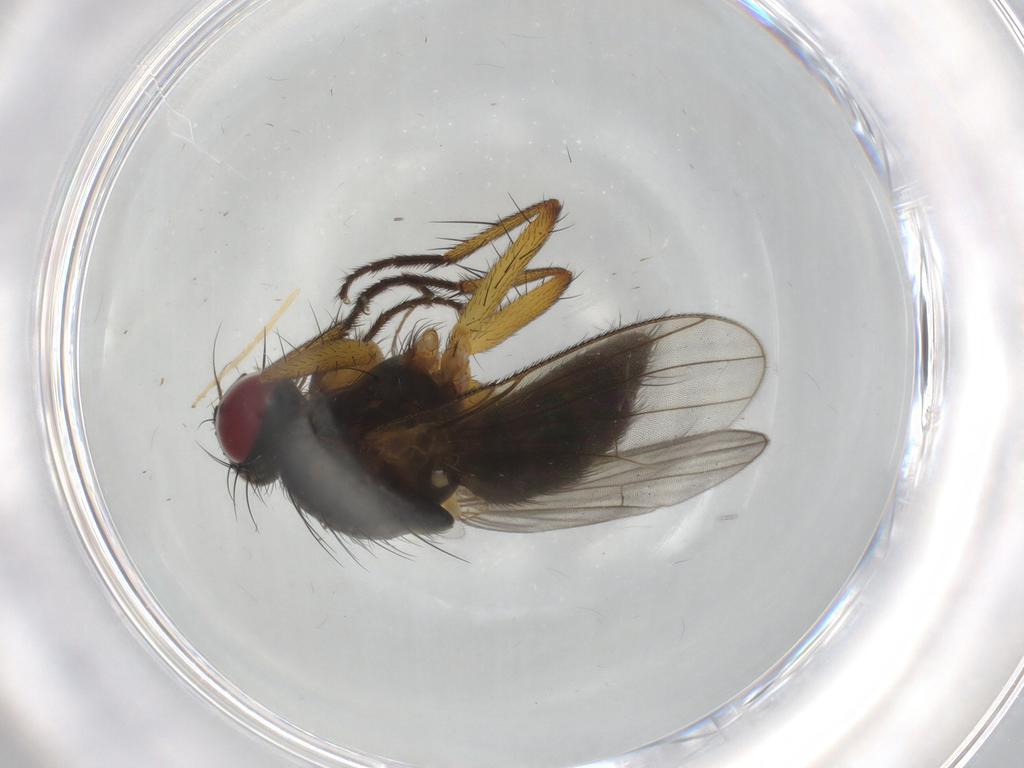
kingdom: Animalia
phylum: Arthropoda
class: Insecta
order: Diptera
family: Muscidae
